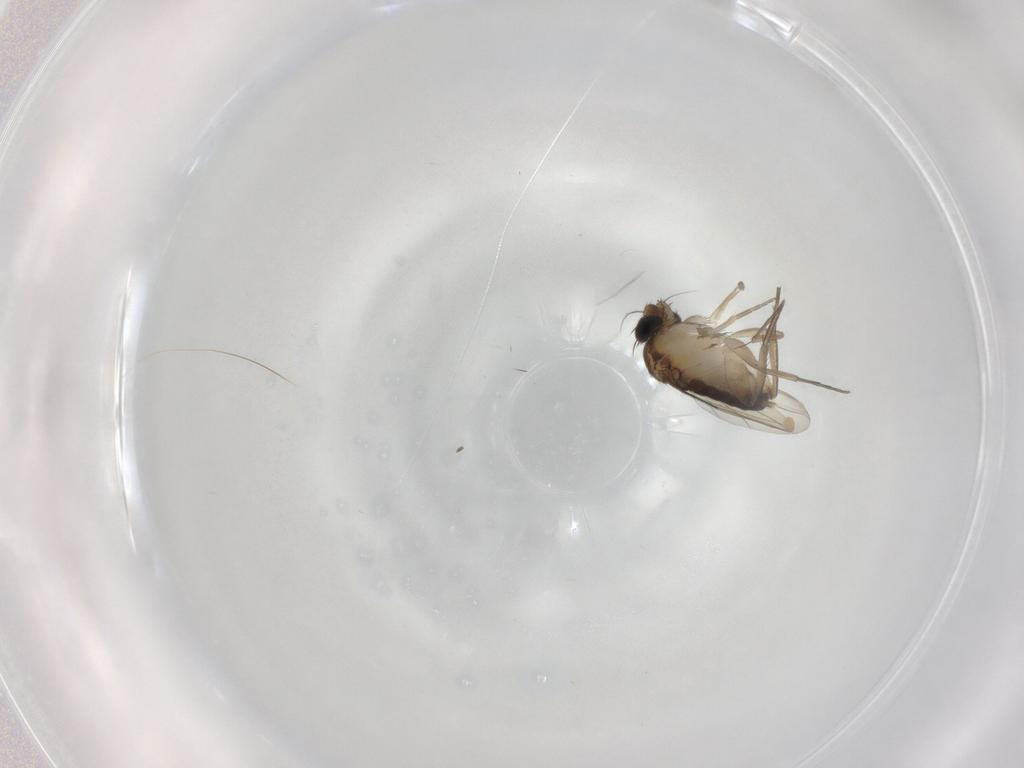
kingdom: Animalia
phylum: Arthropoda
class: Insecta
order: Diptera
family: Phoridae
